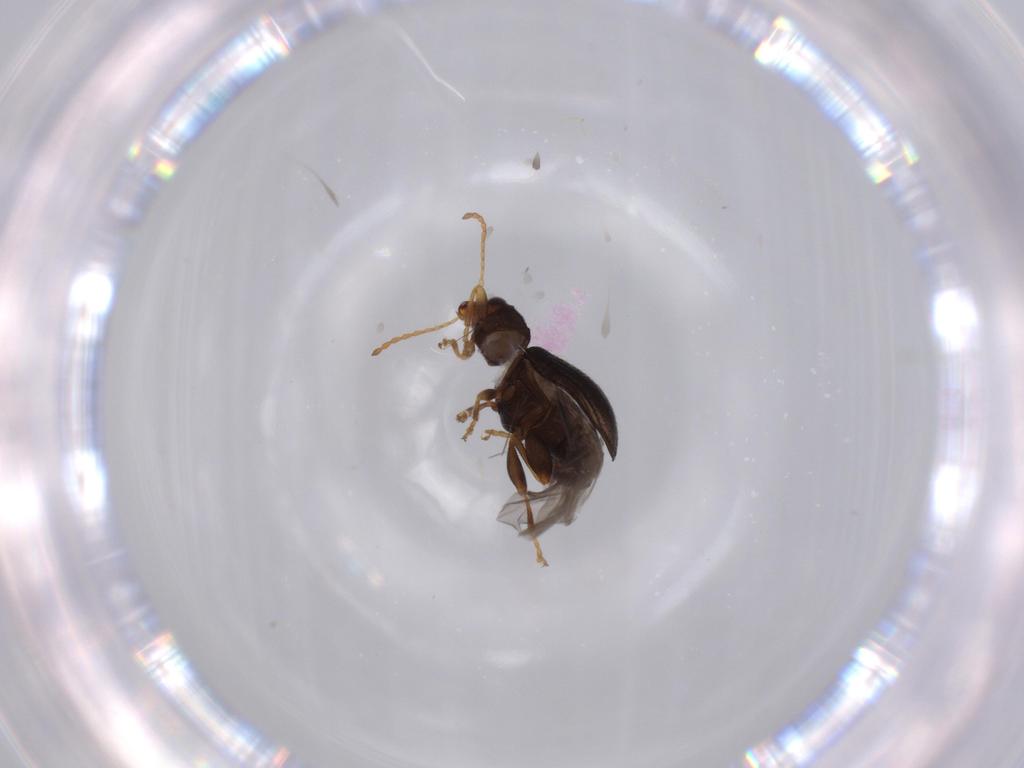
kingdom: Animalia
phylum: Arthropoda
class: Insecta
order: Coleoptera
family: Chrysomelidae
